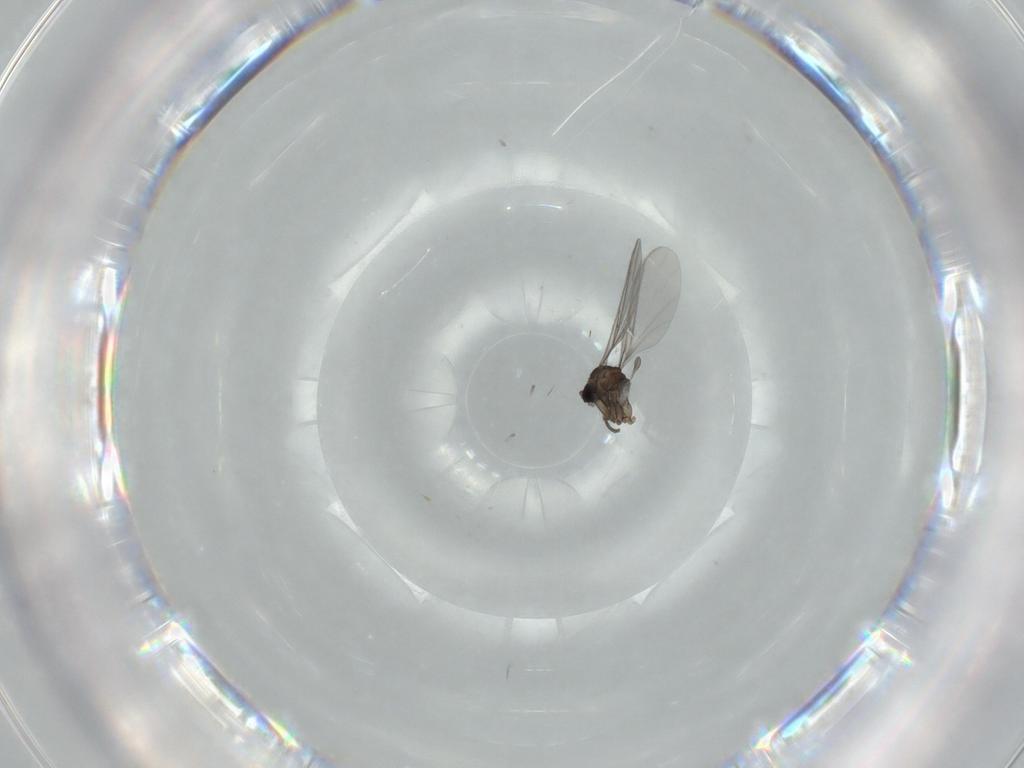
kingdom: Animalia
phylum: Arthropoda
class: Insecta
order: Diptera
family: Sciaridae
